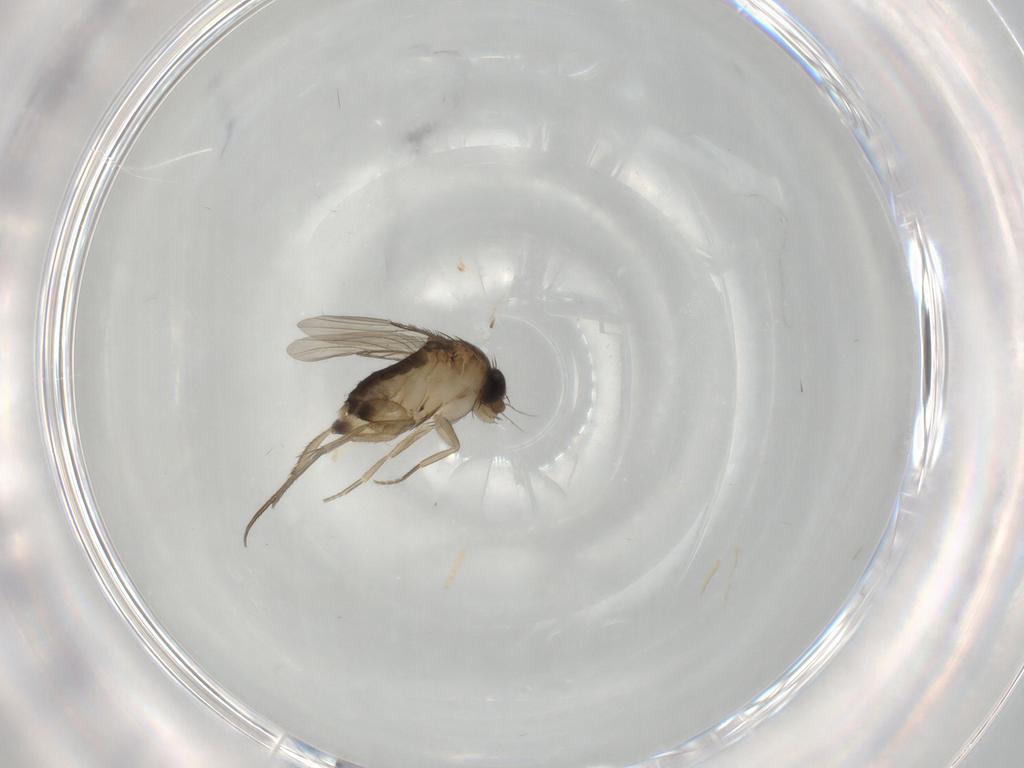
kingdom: Animalia
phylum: Arthropoda
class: Insecta
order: Diptera
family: Phoridae
